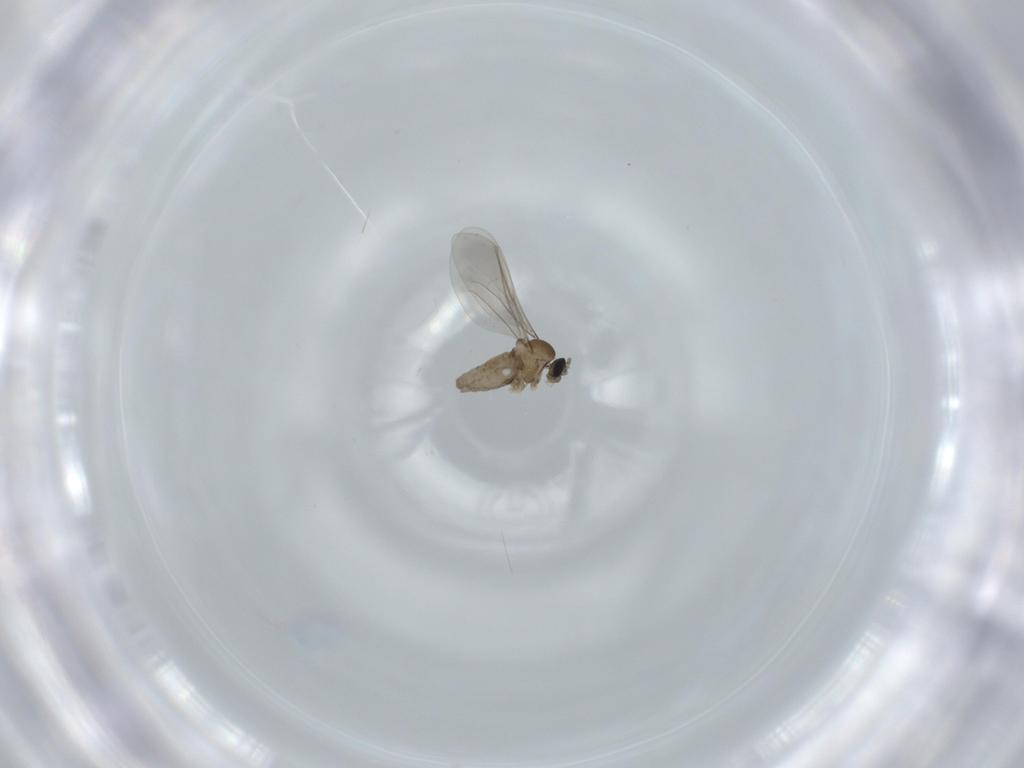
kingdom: Animalia
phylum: Arthropoda
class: Insecta
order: Diptera
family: Cecidomyiidae
